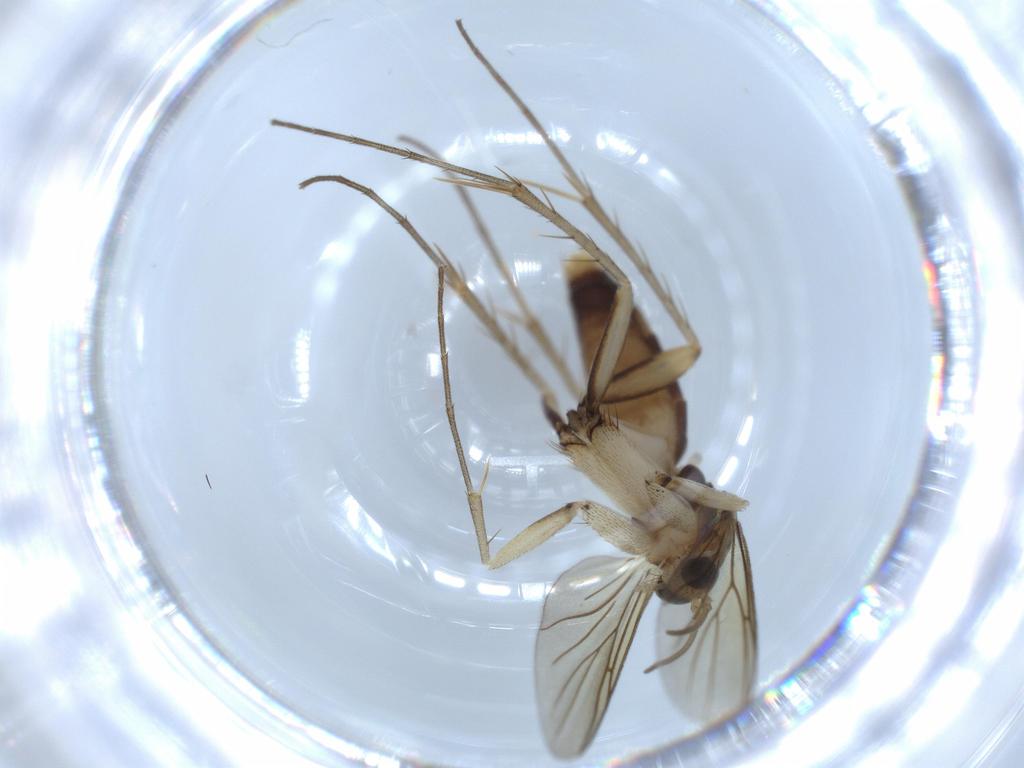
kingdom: Animalia
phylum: Arthropoda
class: Insecta
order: Diptera
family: Mycetophilidae
